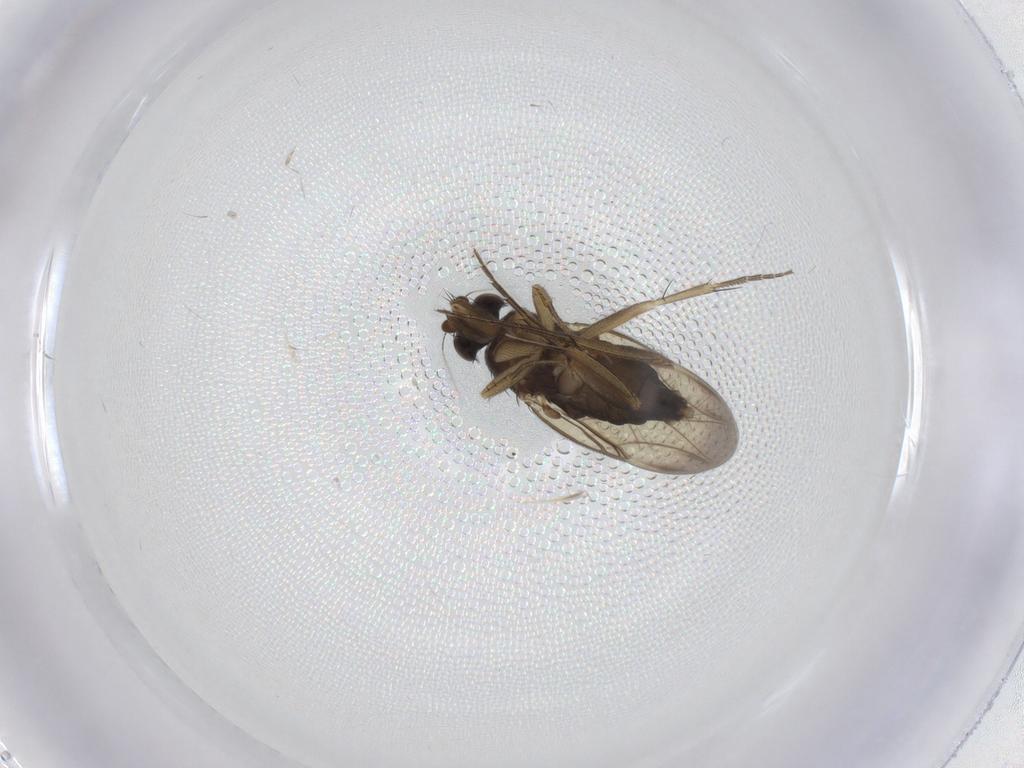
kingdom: Animalia
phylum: Arthropoda
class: Insecta
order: Diptera
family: Phoridae
